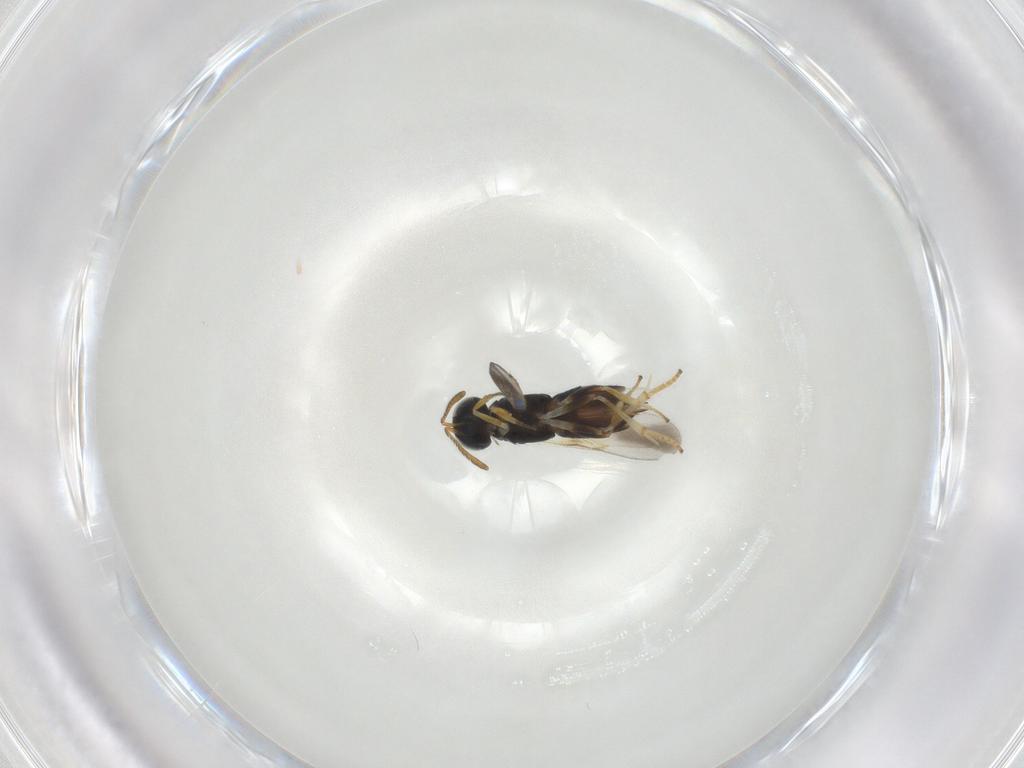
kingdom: Animalia
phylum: Arthropoda
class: Insecta
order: Hymenoptera
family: Encyrtidae
